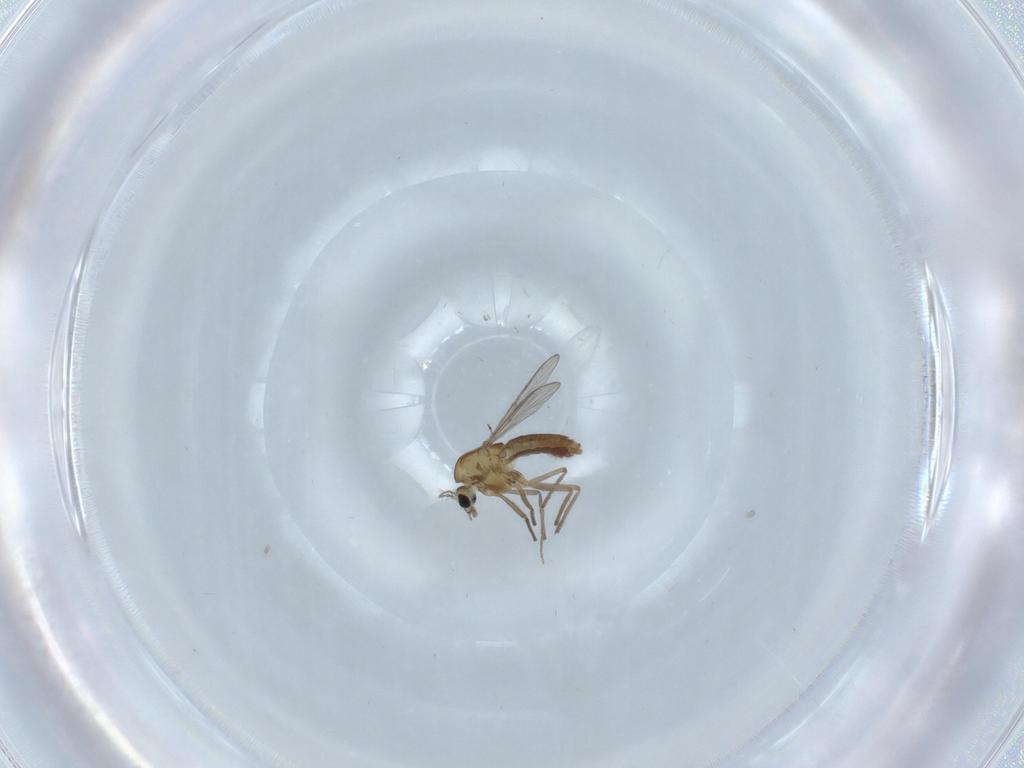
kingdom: Animalia
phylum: Arthropoda
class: Insecta
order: Diptera
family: Chironomidae
